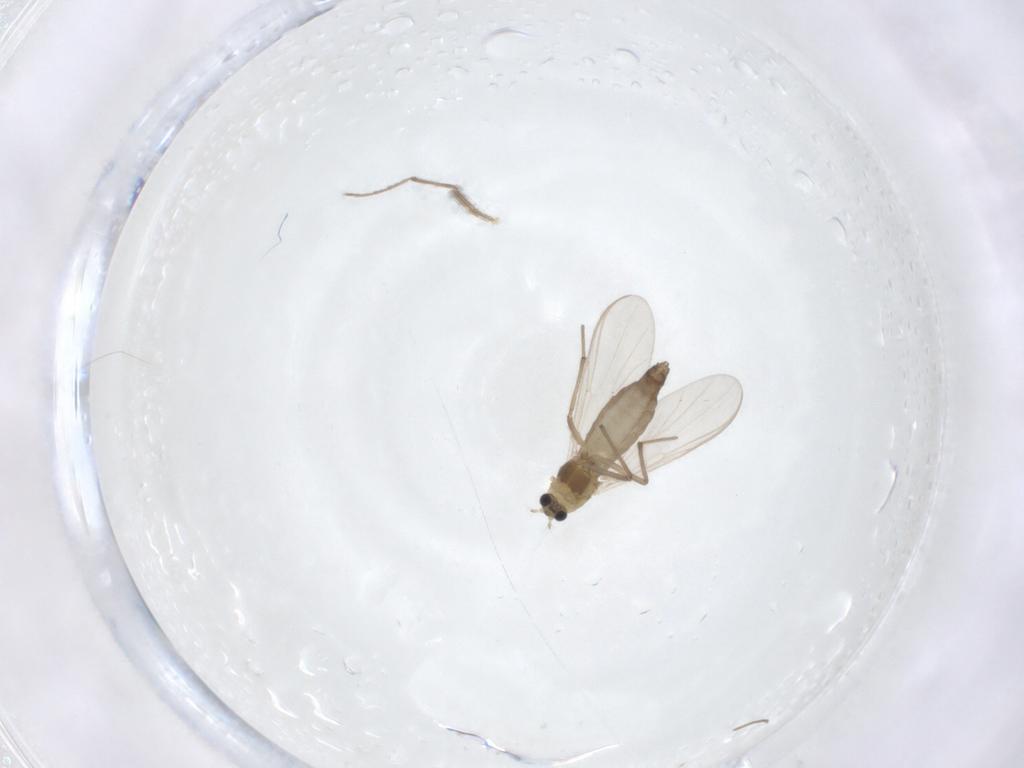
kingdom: Animalia
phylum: Arthropoda
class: Insecta
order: Diptera
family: Chironomidae
